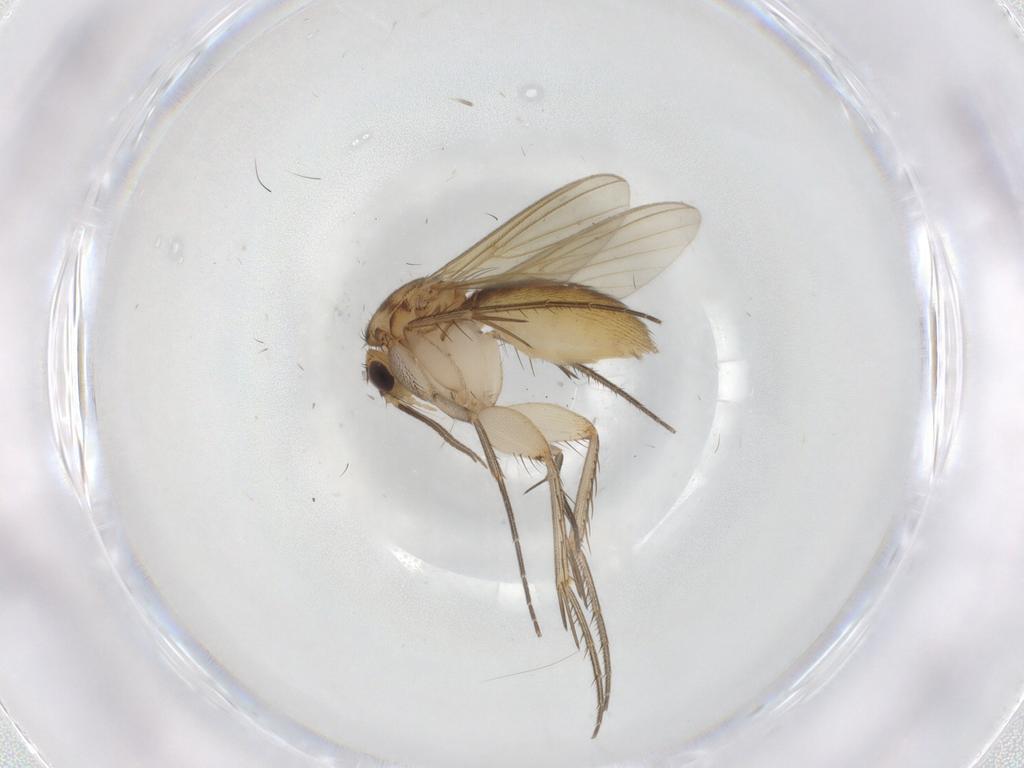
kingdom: Animalia
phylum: Arthropoda
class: Insecta
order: Diptera
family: Mycetophilidae
